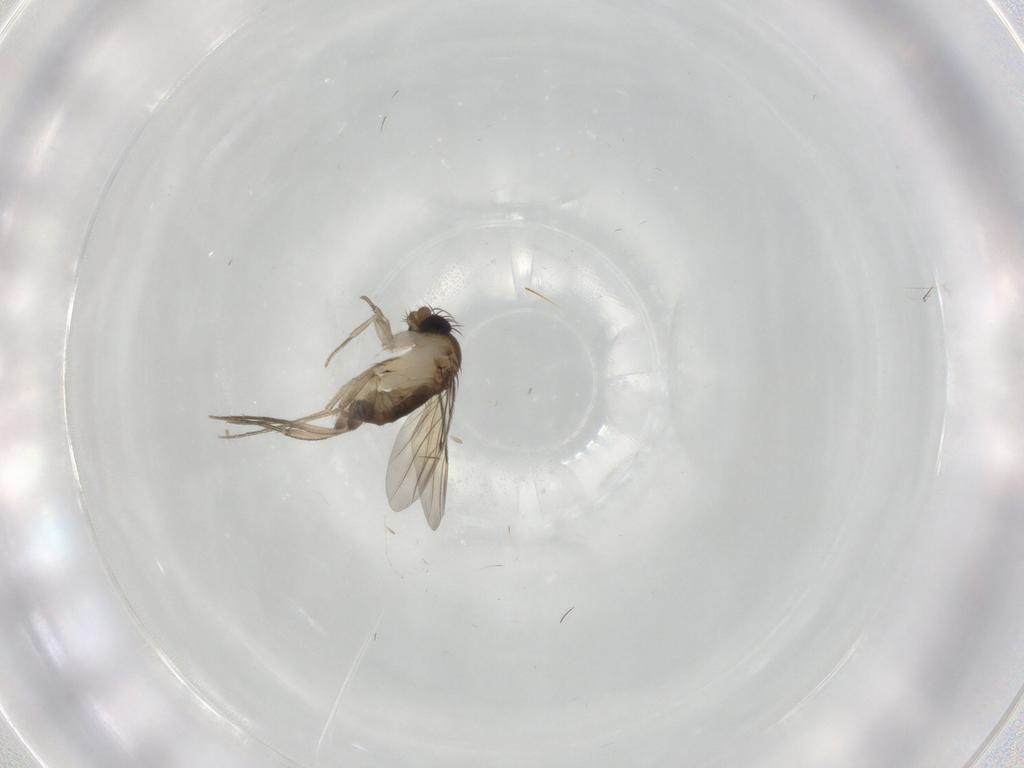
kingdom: Animalia
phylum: Arthropoda
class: Insecta
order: Diptera
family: Phoridae
